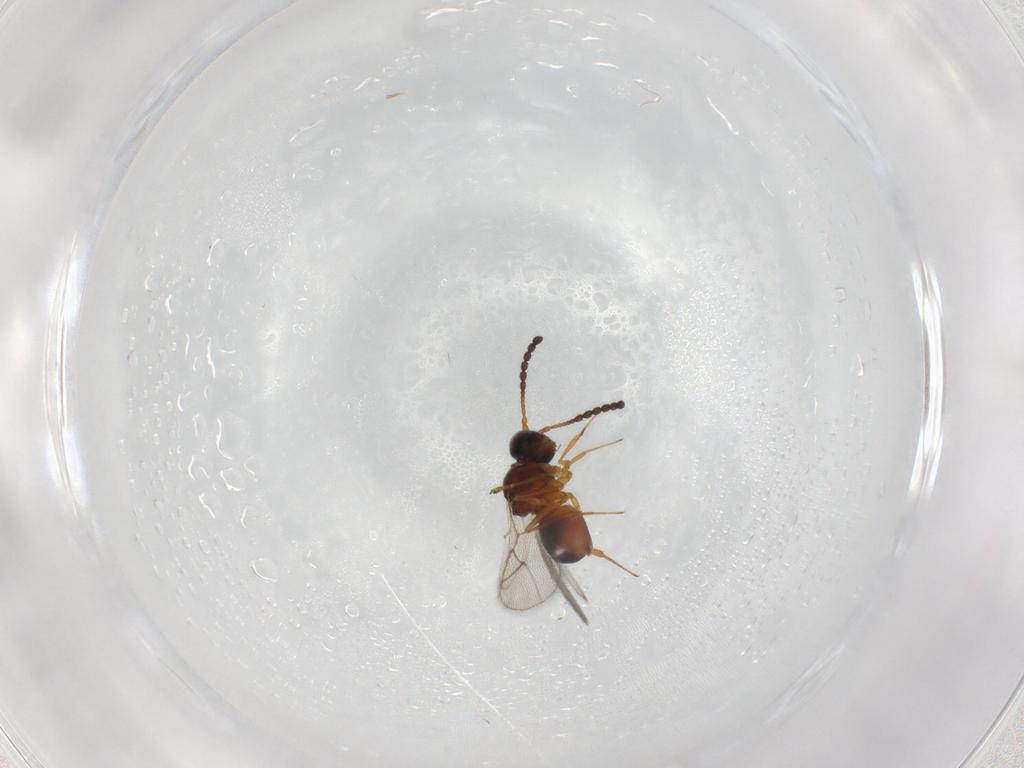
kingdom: Animalia
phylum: Arthropoda
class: Insecta
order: Hymenoptera
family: Figitidae
